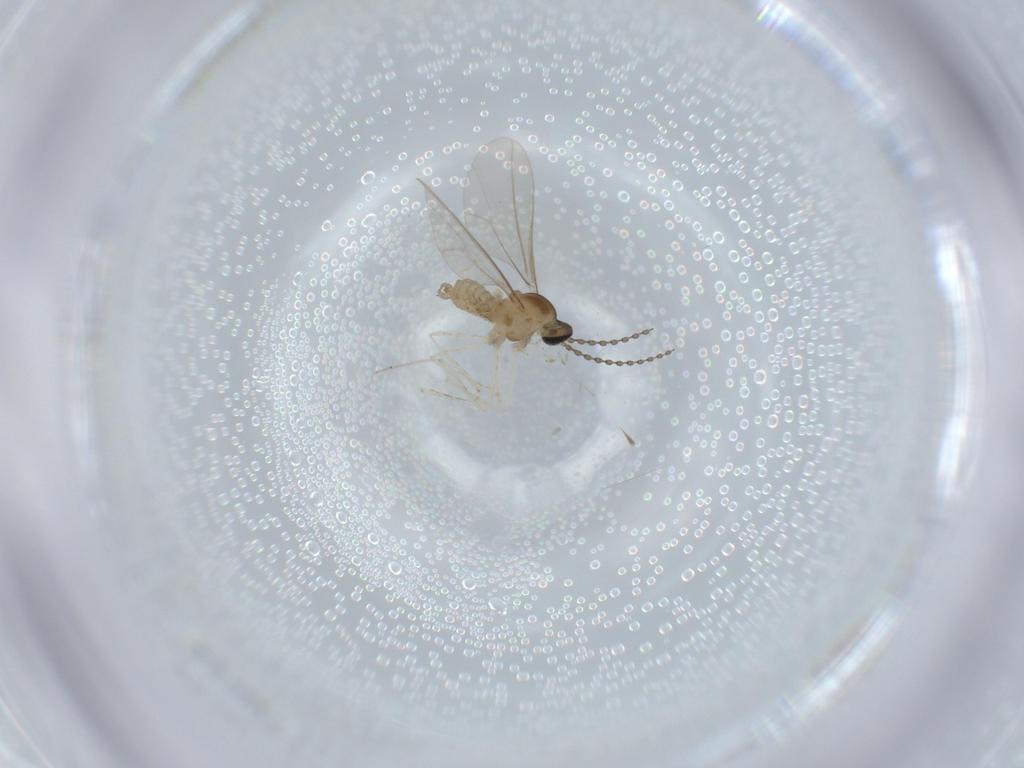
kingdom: Animalia
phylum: Arthropoda
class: Insecta
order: Diptera
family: Cecidomyiidae
